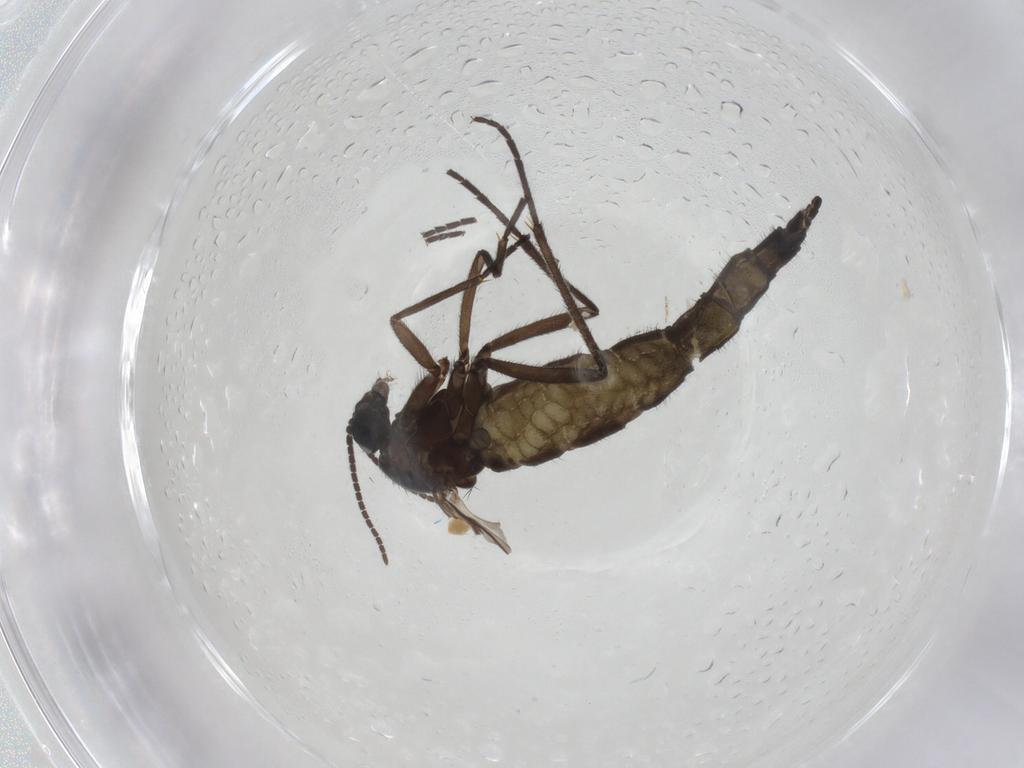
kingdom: Animalia
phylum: Arthropoda
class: Insecta
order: Diptera
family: Sciaridae
